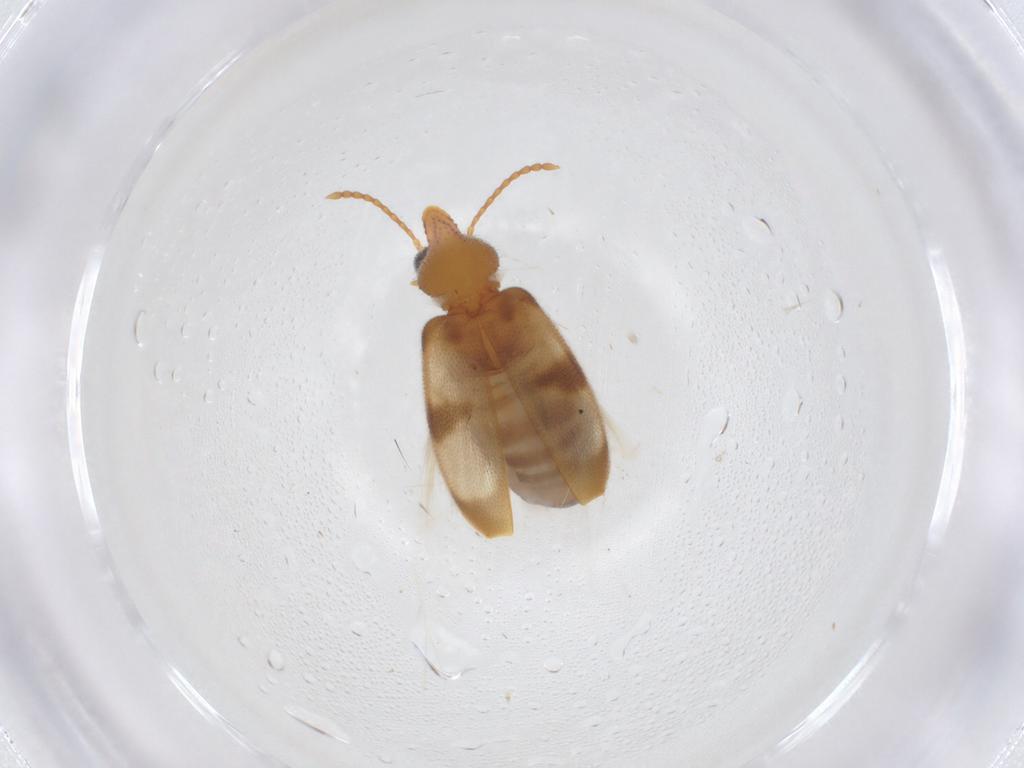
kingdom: Animalia
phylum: Arthropoda
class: Insecta
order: Coleoptera
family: Anthicidae
